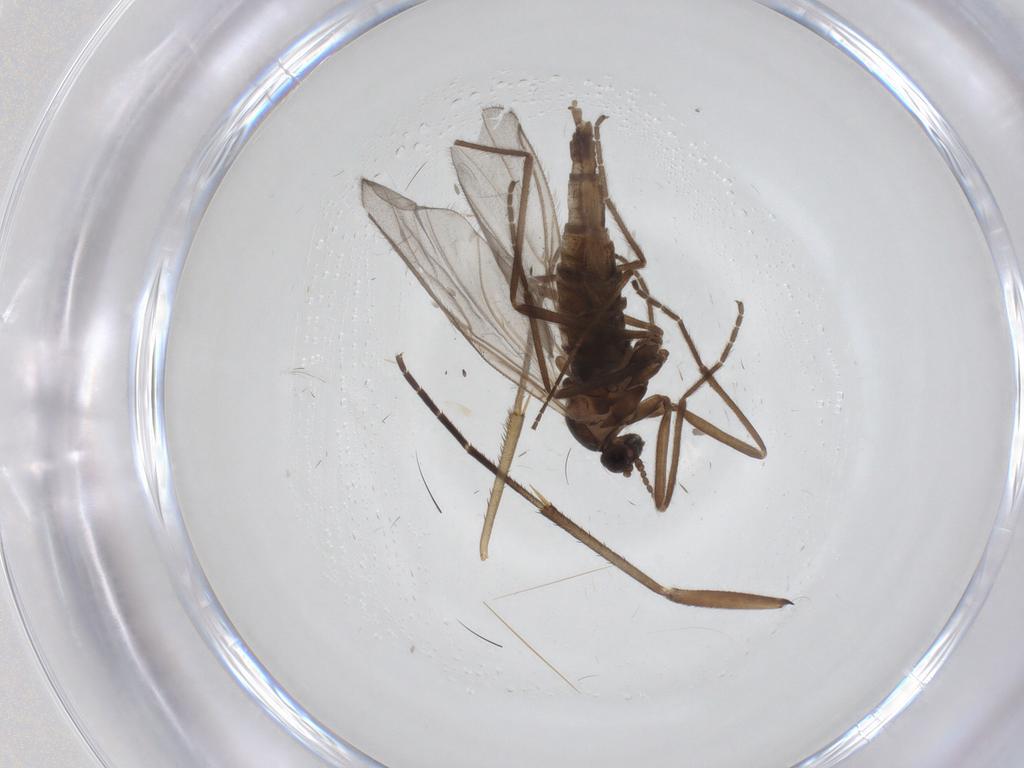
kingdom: Animalia
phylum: Arthropoda
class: Insecta
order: Diptera
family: Cecidomyiidae
